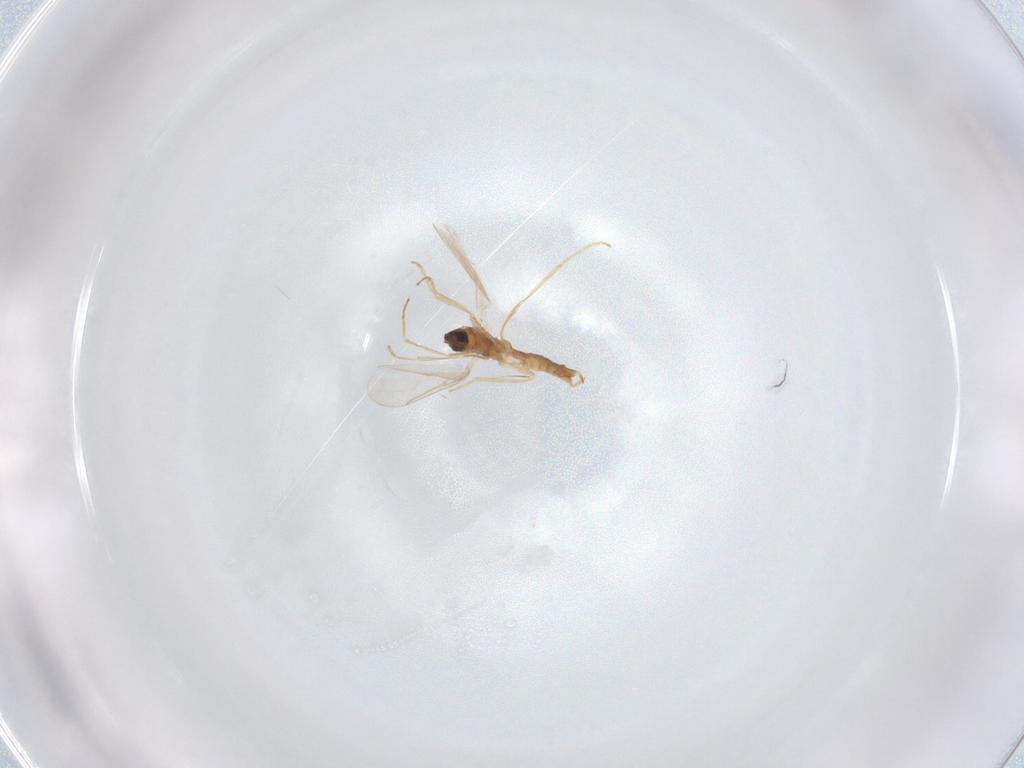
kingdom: Animalia
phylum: Arthropoda
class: Insecta
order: Diptera
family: Ceratopogonidae
